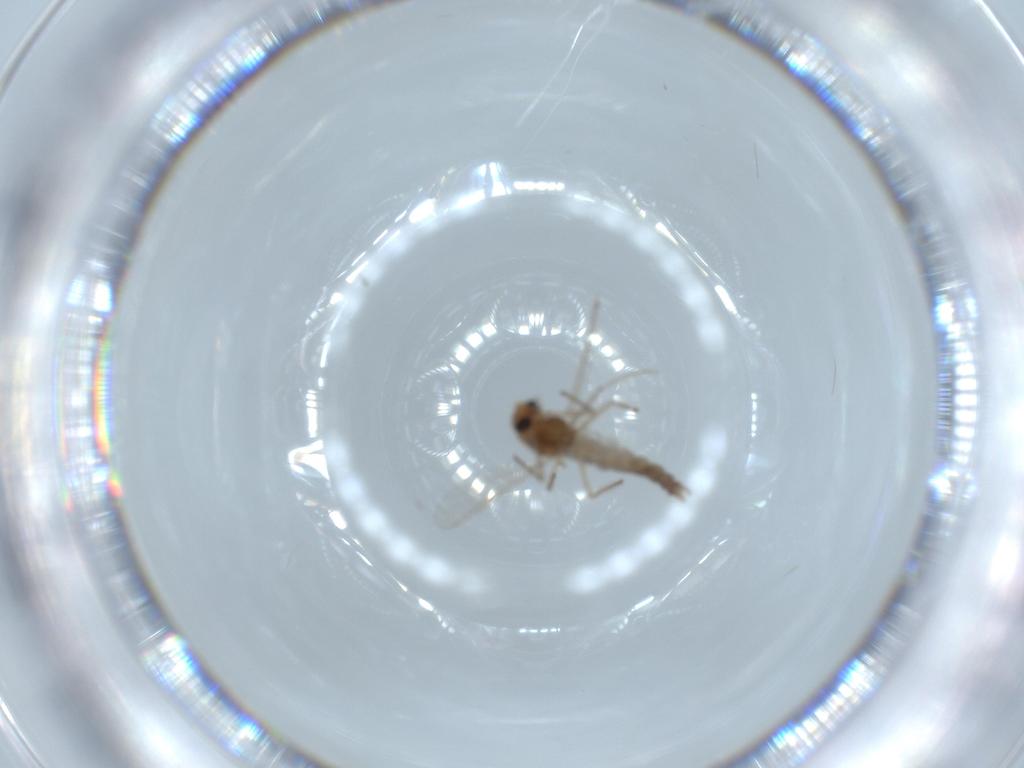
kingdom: Animalia
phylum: Arthropoda
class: Insecta
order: Diptera
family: Chironomidae
